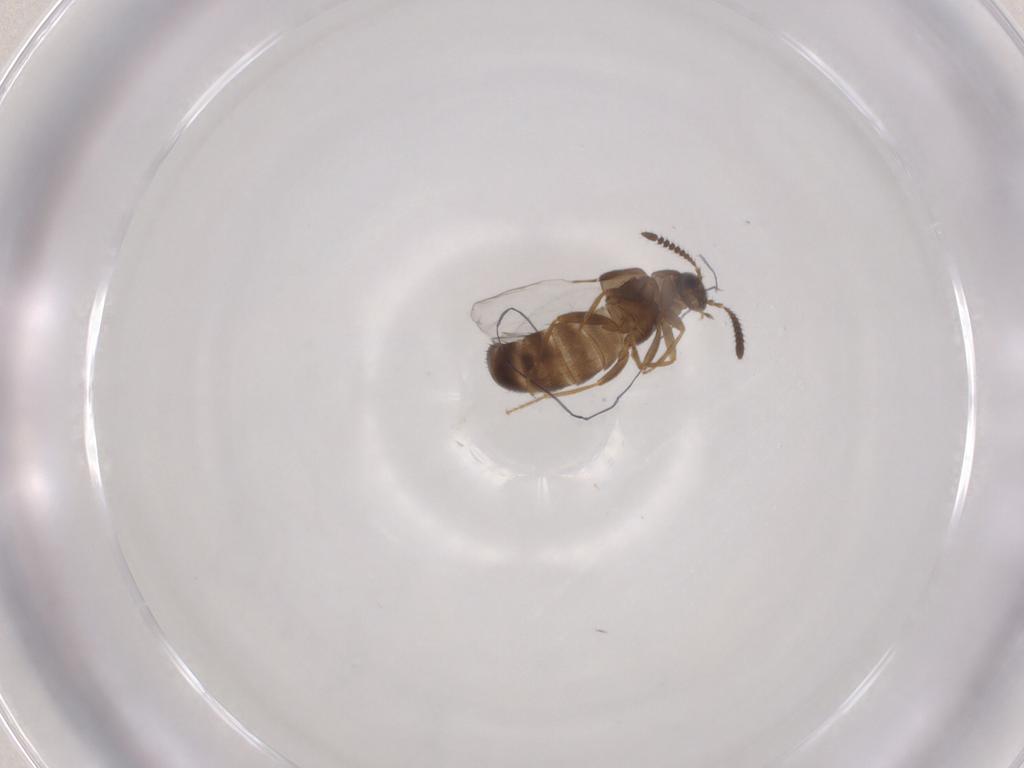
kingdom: Animalia
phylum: Arthropoda
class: Insecta
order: Coleoptera
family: Staphylinidae
